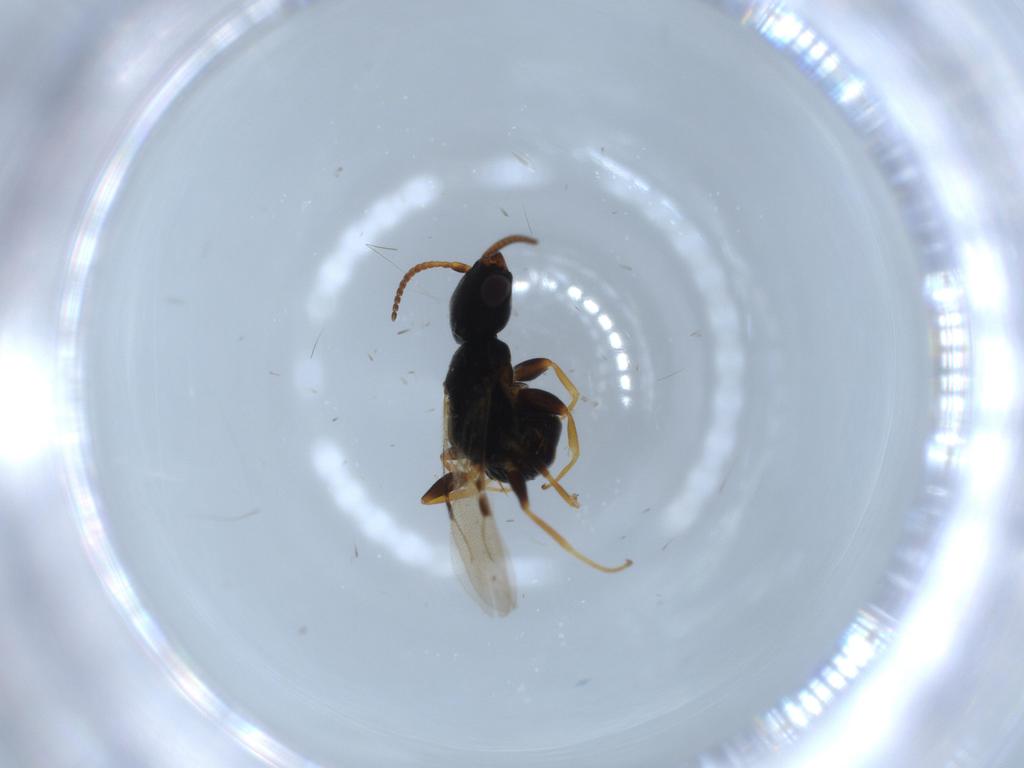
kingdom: Animalia
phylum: Arthropoda
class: Insecta
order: Hymenoptera
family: Bethylidae
